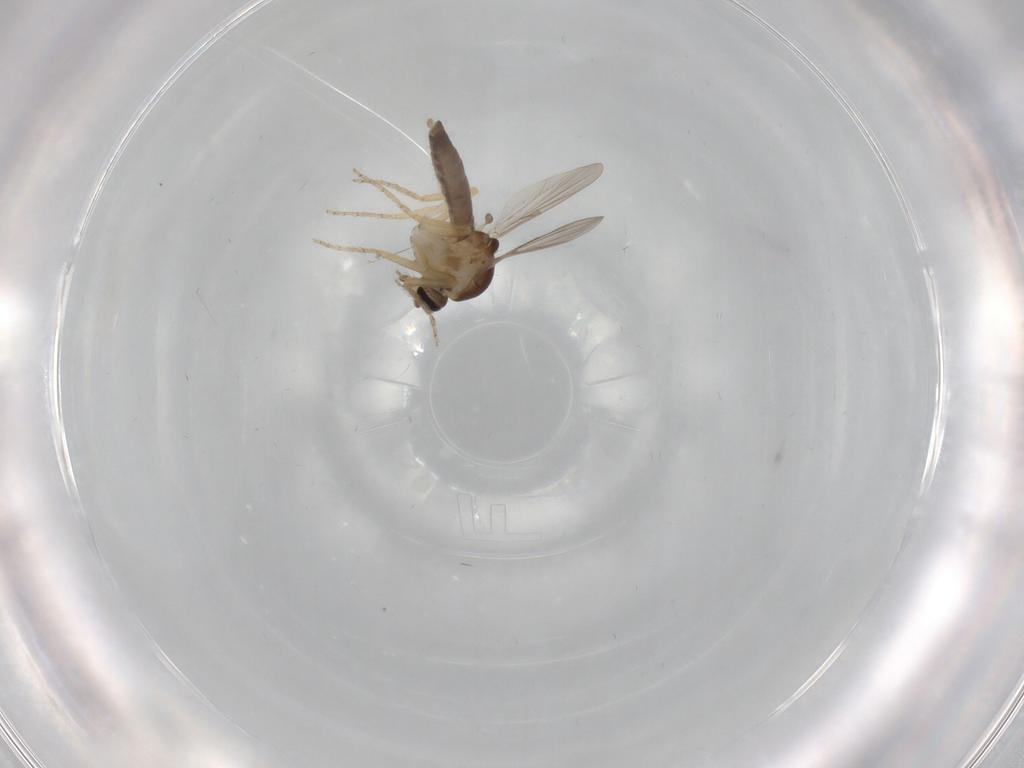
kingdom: Animalia
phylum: Arthropoda
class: Insecta
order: Diptera
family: Ceratopogonidae
